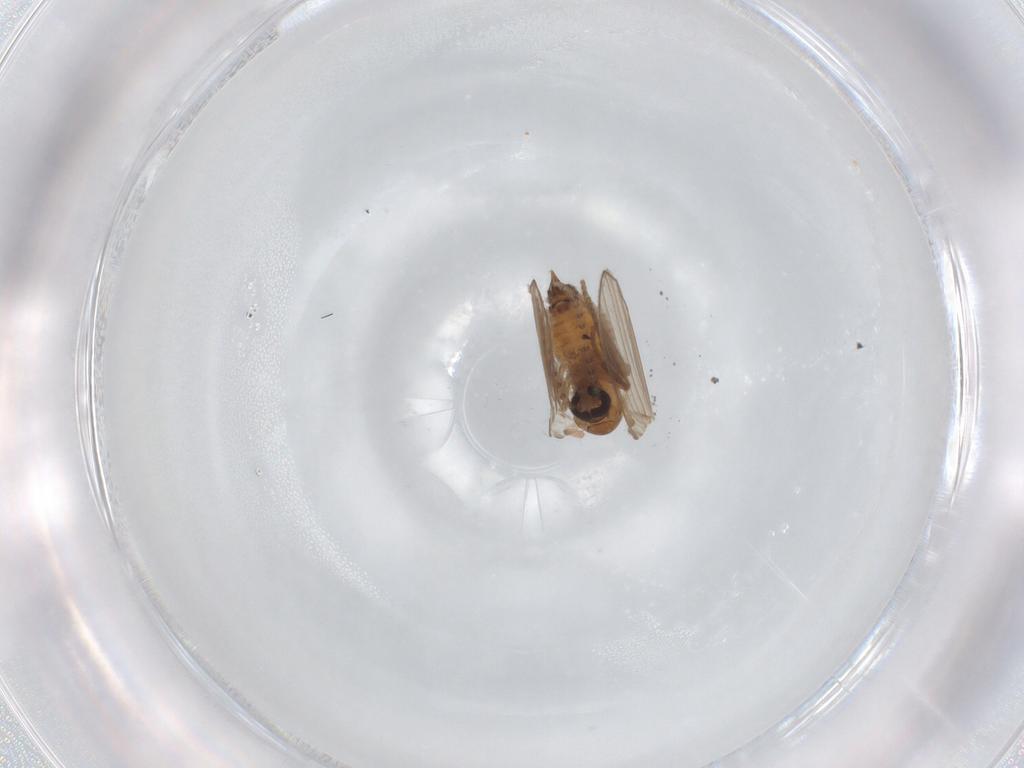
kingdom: Animalia
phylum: Arthropoda
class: Insecta
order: Diptera
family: Psychodidae
